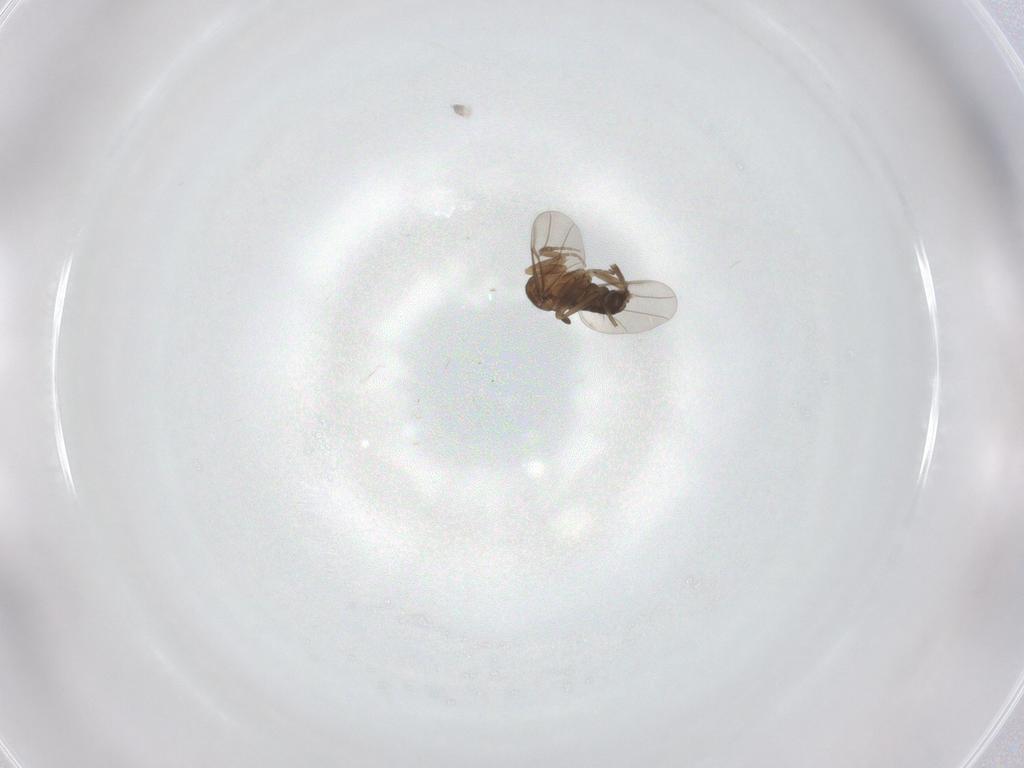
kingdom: Animalia
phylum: Arthropoda
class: Insecta
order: Diptera
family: Phoridae
